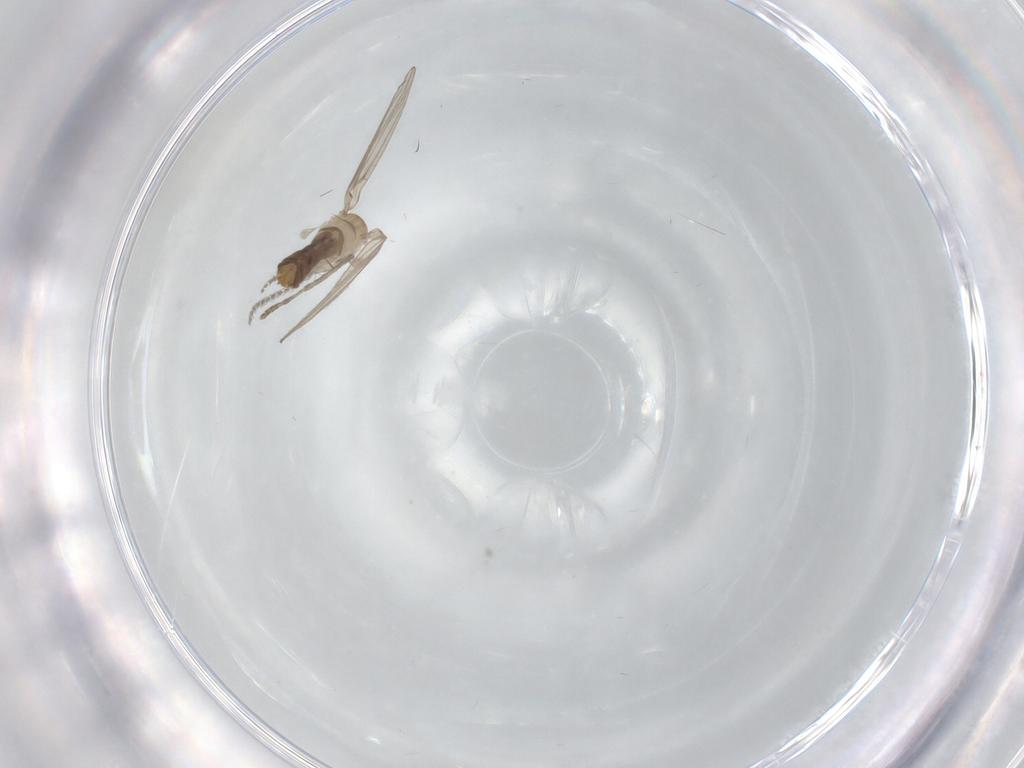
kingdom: Animalia
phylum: Arthropoda
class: Insecta
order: Diptera
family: Psychodidae
